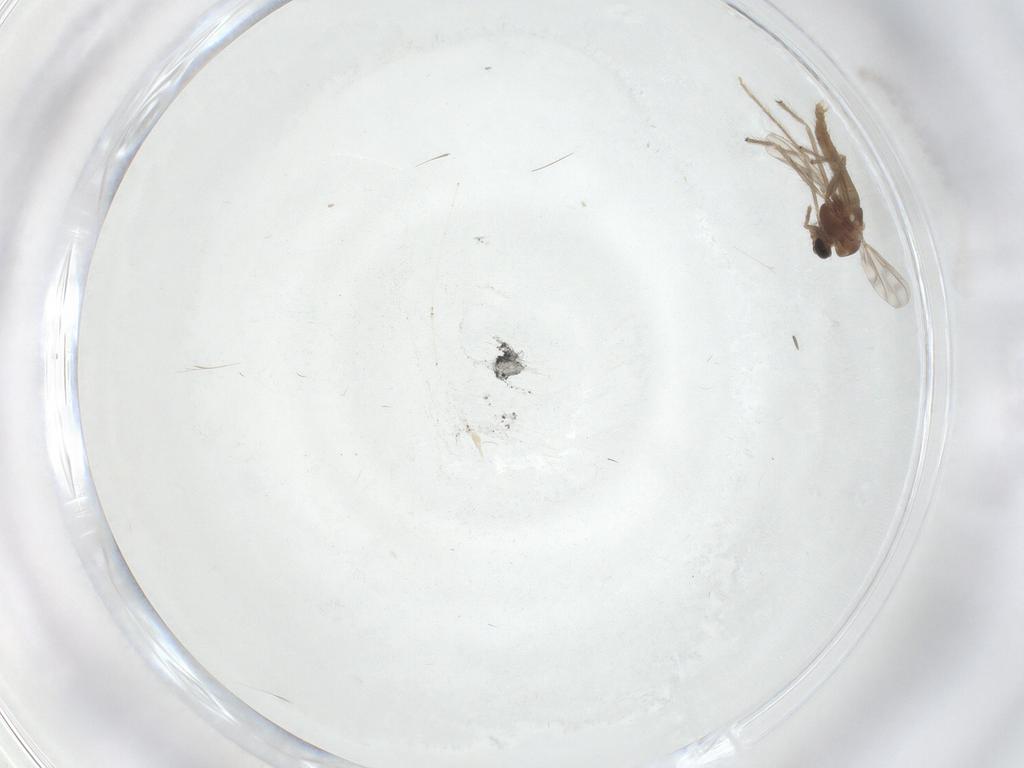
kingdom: Animalia
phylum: Arthropoda
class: Insecta
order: Diptera
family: Chironomidae
